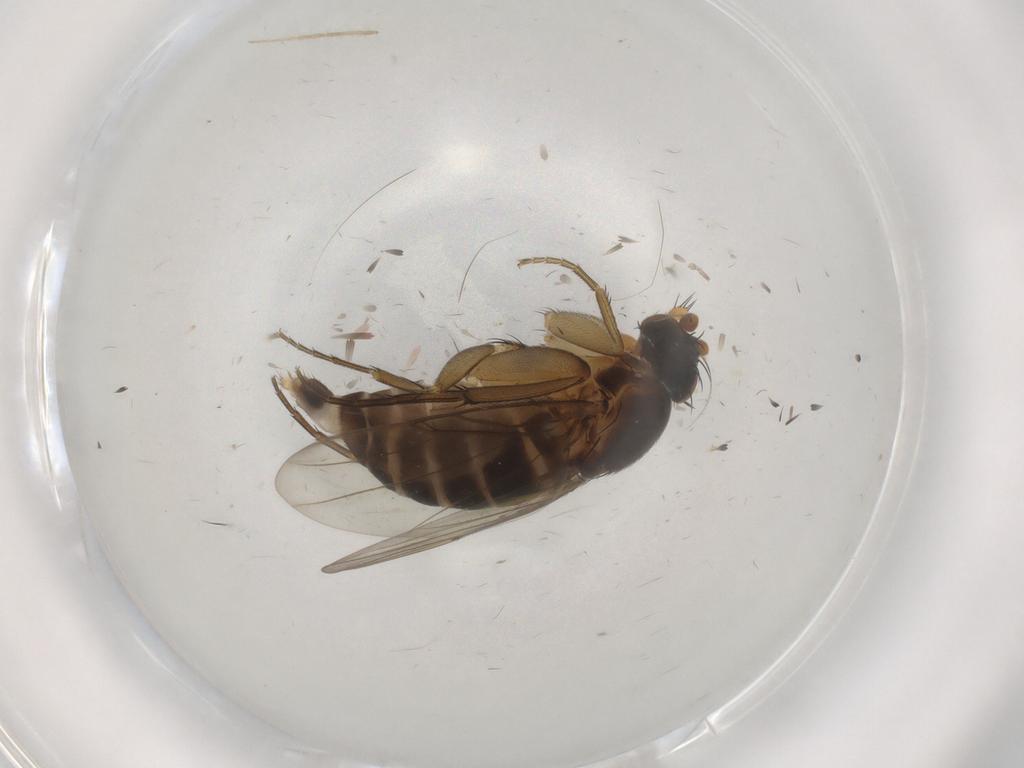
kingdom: Animalia
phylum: Arthropoda
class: Insecta
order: Diptera
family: Phoridae
